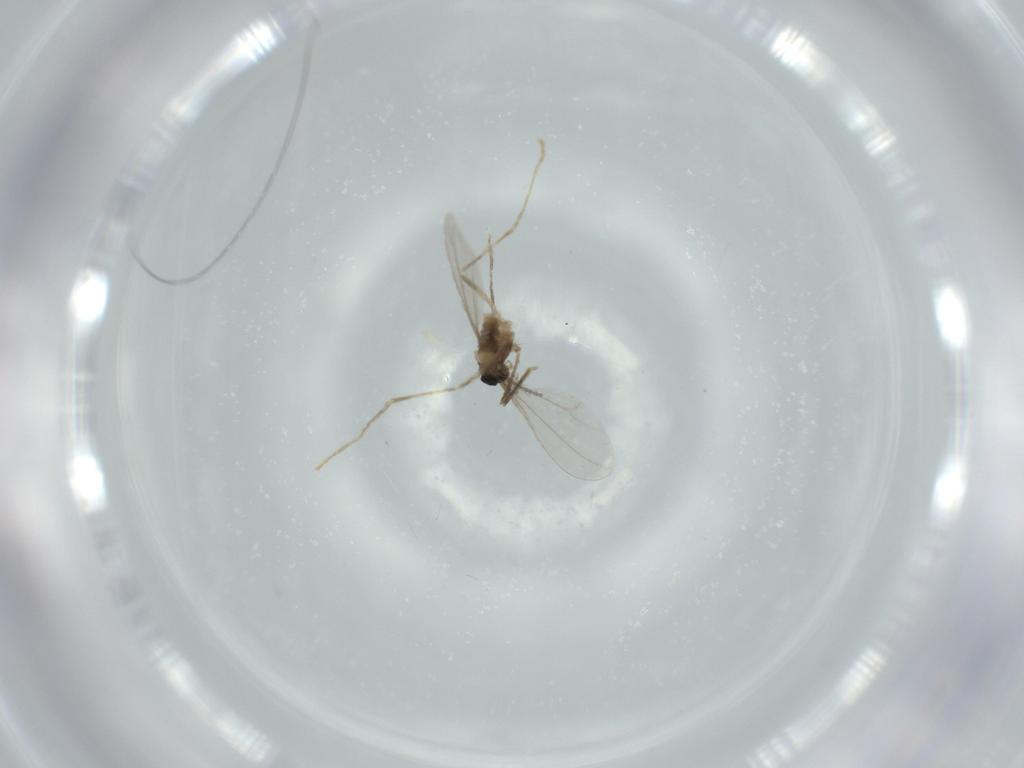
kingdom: Animalia
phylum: Arthropoda
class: Insecta
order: Diptera
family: Cecidomyiidae
